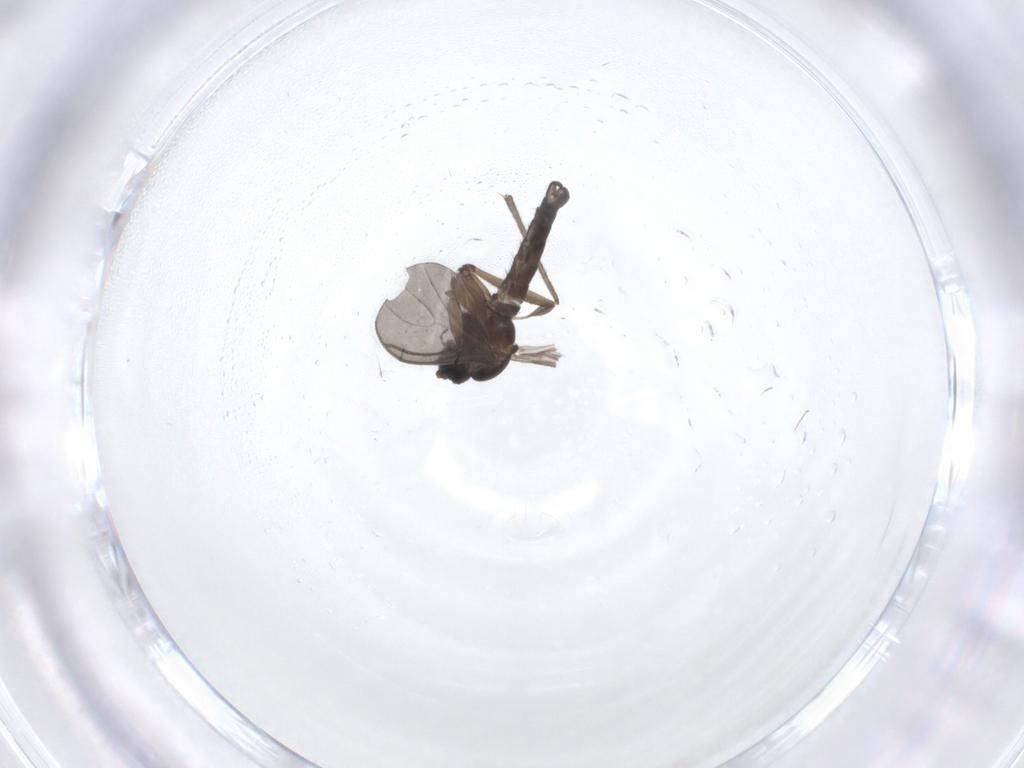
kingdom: Animalia
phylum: Arthropoda
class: Insecta
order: Diptera
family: Sciaridae
